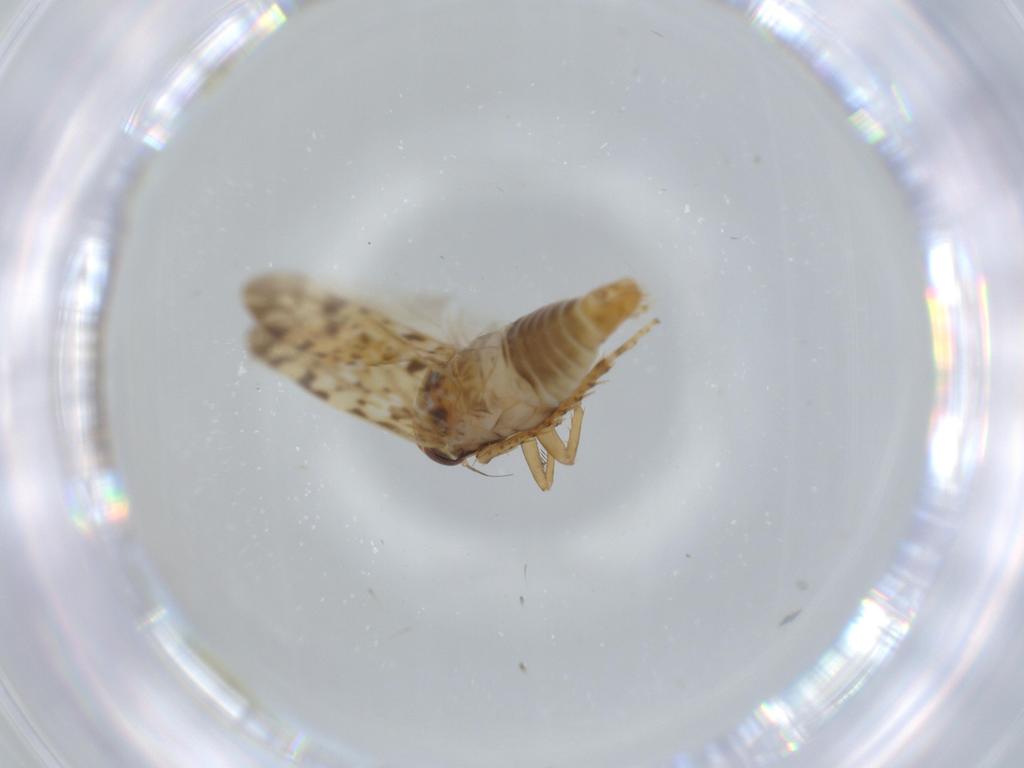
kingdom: Animalia
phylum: Arthropoda
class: Insecta
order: Hemiptera
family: Cicadellidae
